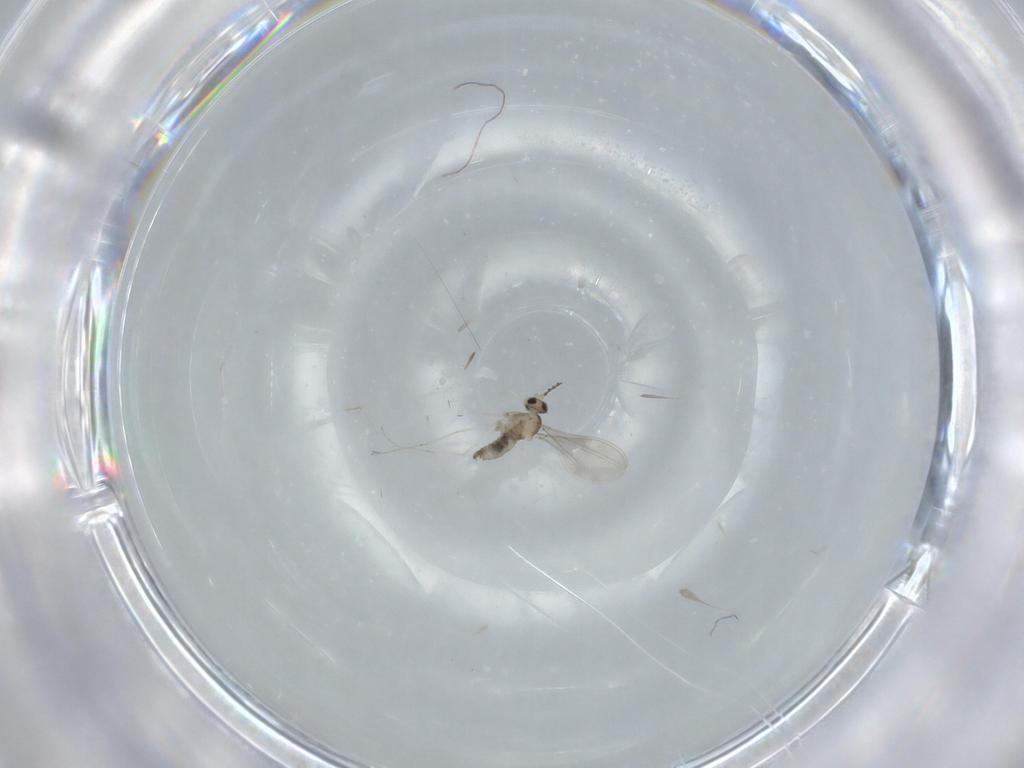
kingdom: Animalia
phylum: Arthropoda
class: Insecta
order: Diptera
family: Cecidomyiidae
